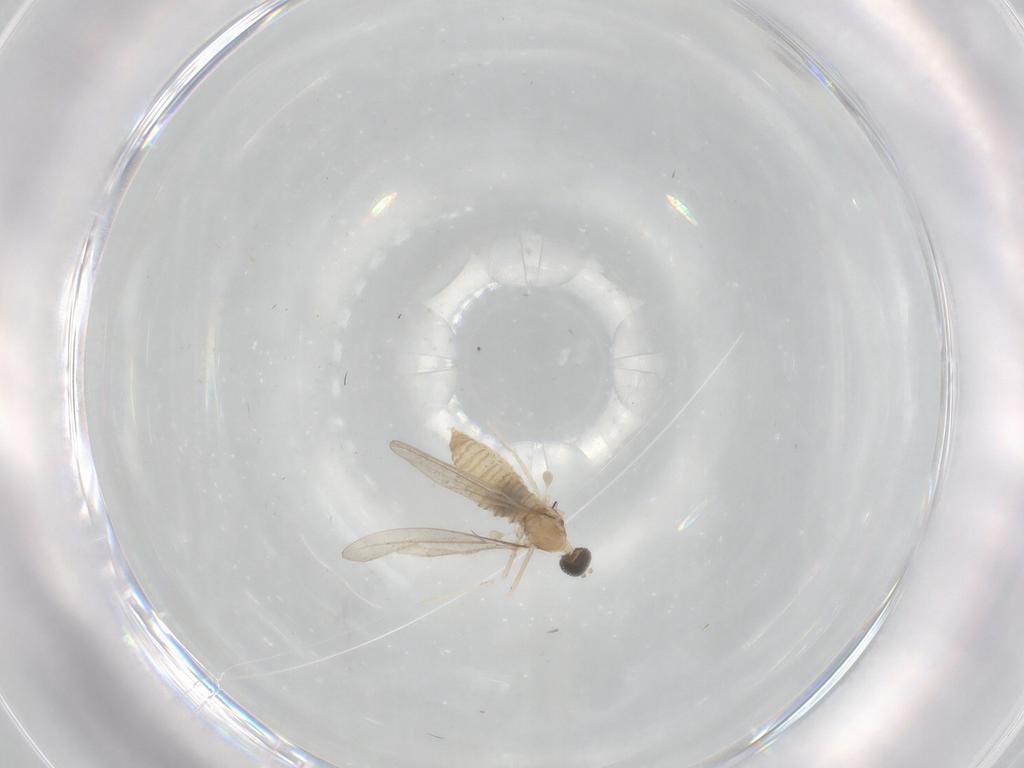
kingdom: Animalia
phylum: Arthropoda
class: Insecta
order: Diptera
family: Cecidomyiidae
